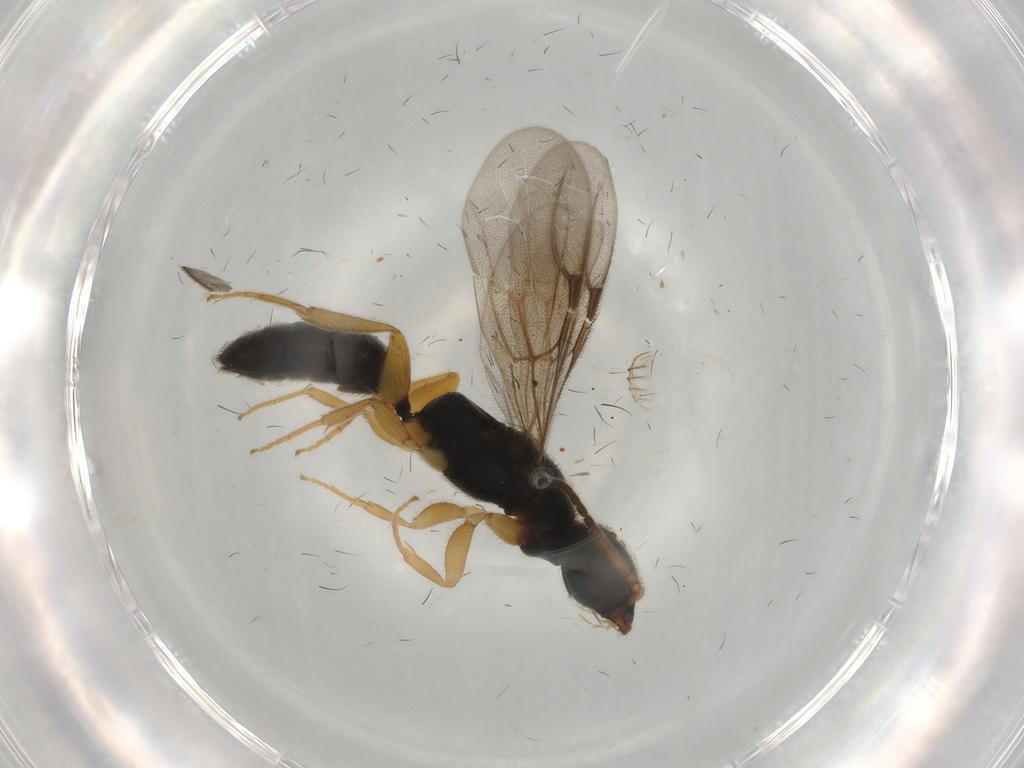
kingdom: Animalia
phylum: Arthropoda
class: Insecta
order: Hymenoptera
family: Bethylidae
